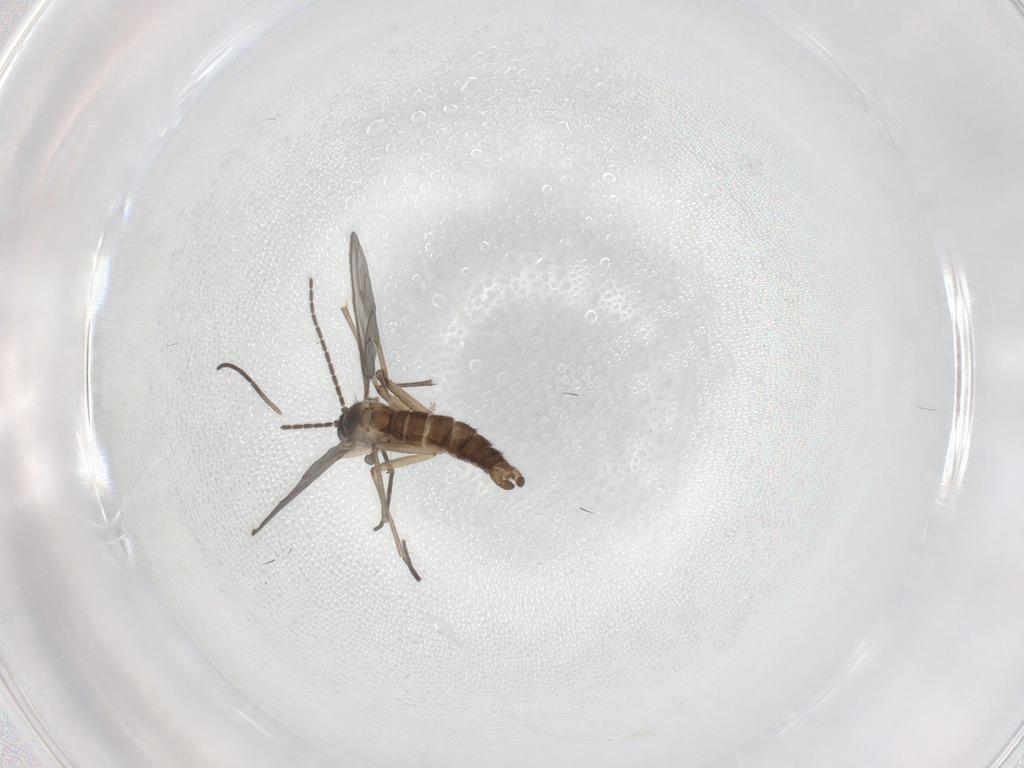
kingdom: Animalia
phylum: Arthropoda
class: Insecta
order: Diptera
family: Sciaridae
